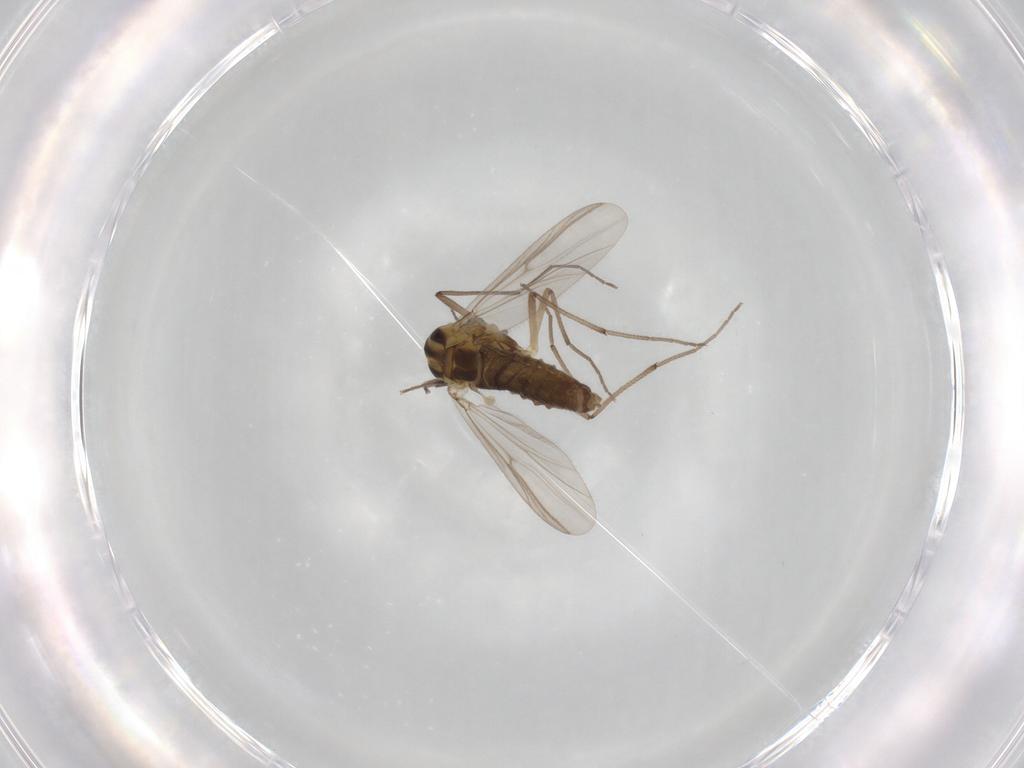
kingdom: Animalia
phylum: Arthropoda
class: Insecta
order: Diptera
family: Chironomidae
